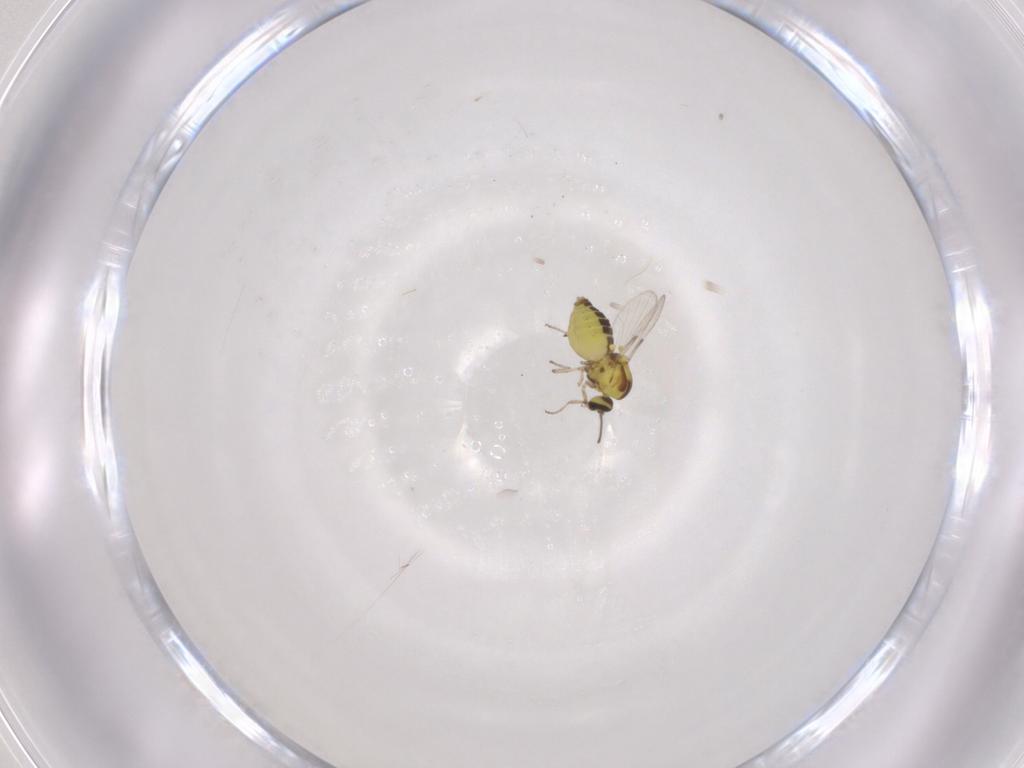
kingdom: Animalia
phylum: Arthropoda
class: Insecta
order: Diptera
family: Ceratopogonidae
